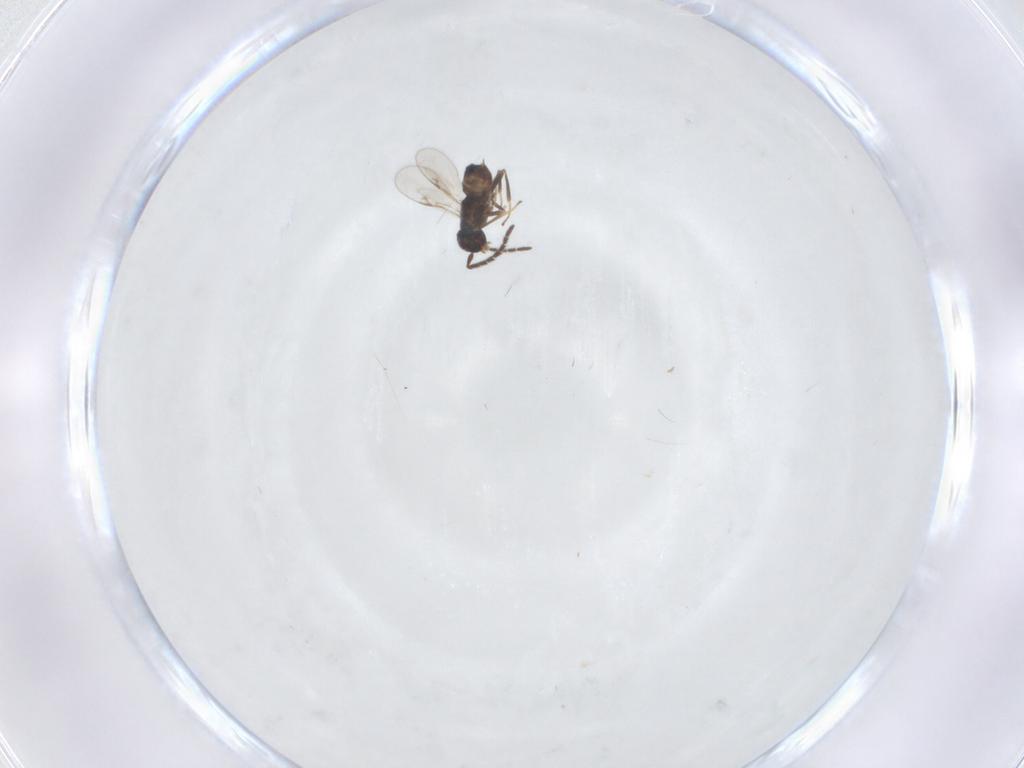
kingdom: Animalia
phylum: Arthropoda
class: Insecta
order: Hymenoptera
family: Encyrtidae
